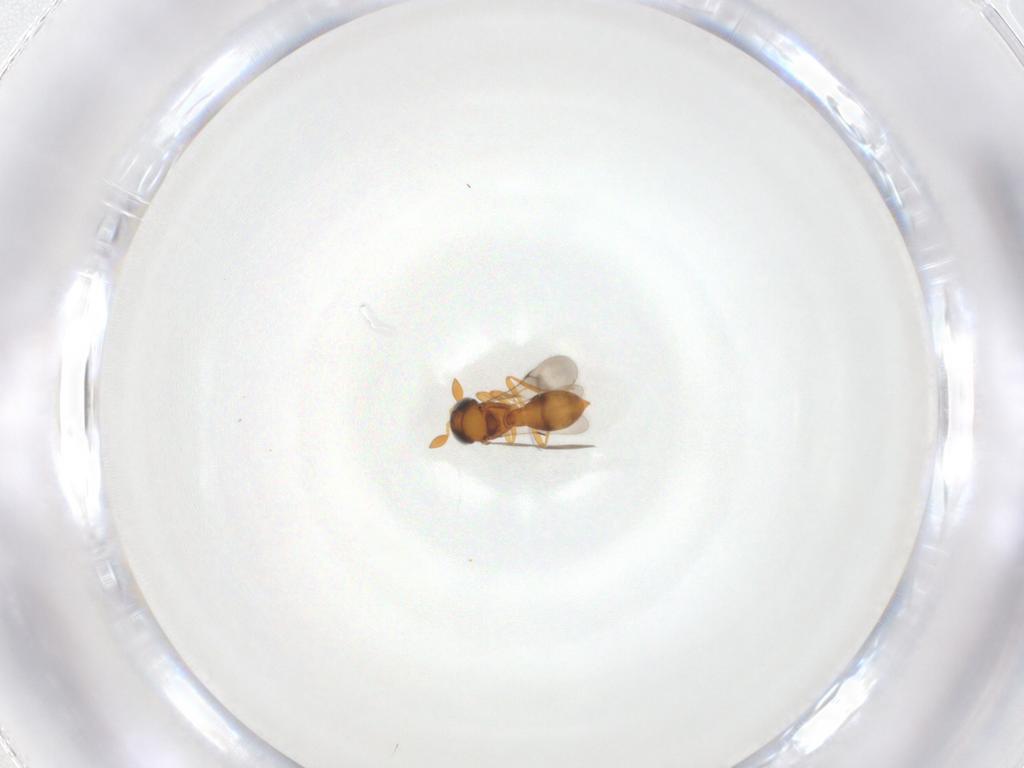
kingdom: Animalia
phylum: Arthropoda
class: Insecta
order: Hymenoptera
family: Scelionidae
